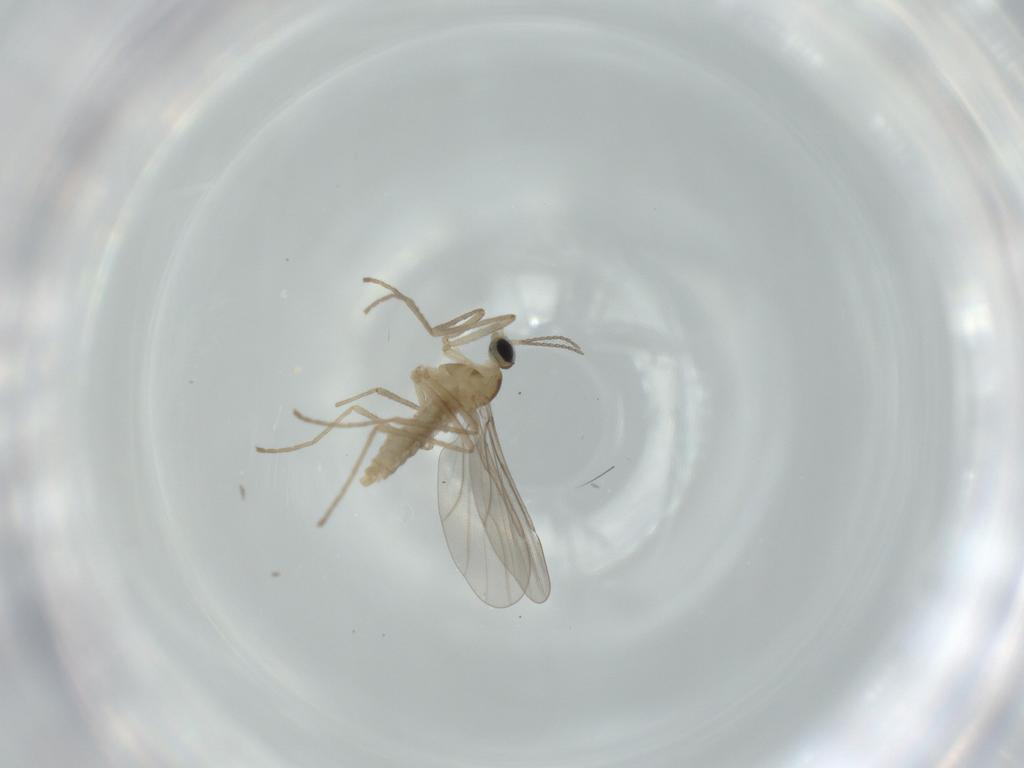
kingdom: Animalia
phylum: Arthropoda
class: Insecta
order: Diptera
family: Cecidomyiidae
